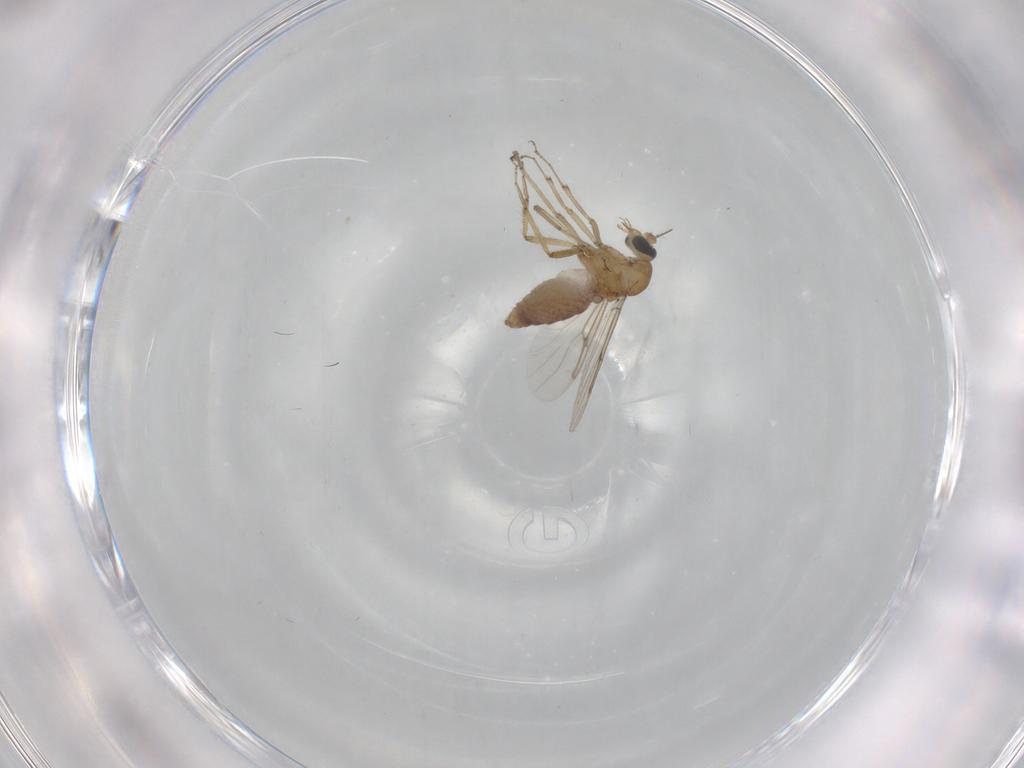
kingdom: Animalia
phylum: Arthropoda
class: Insecta
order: Diptera
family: Ceratopogonidae
